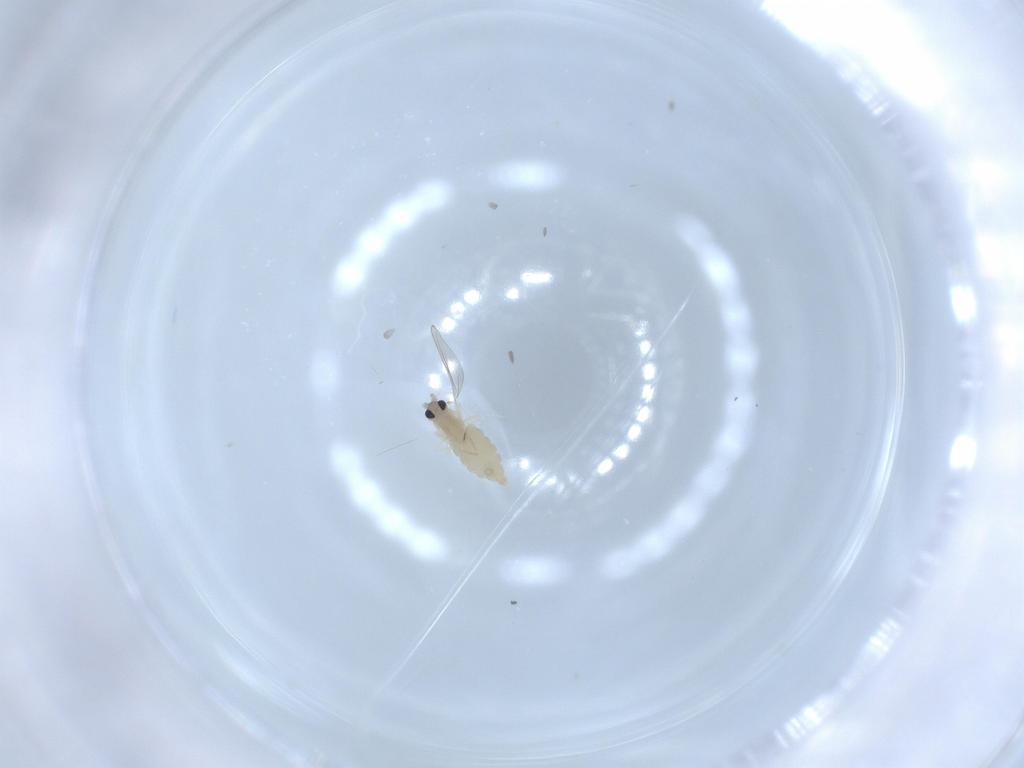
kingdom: Animalia
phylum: Arthropoda
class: Insecta
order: Diptera
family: Cecidomyiidae
